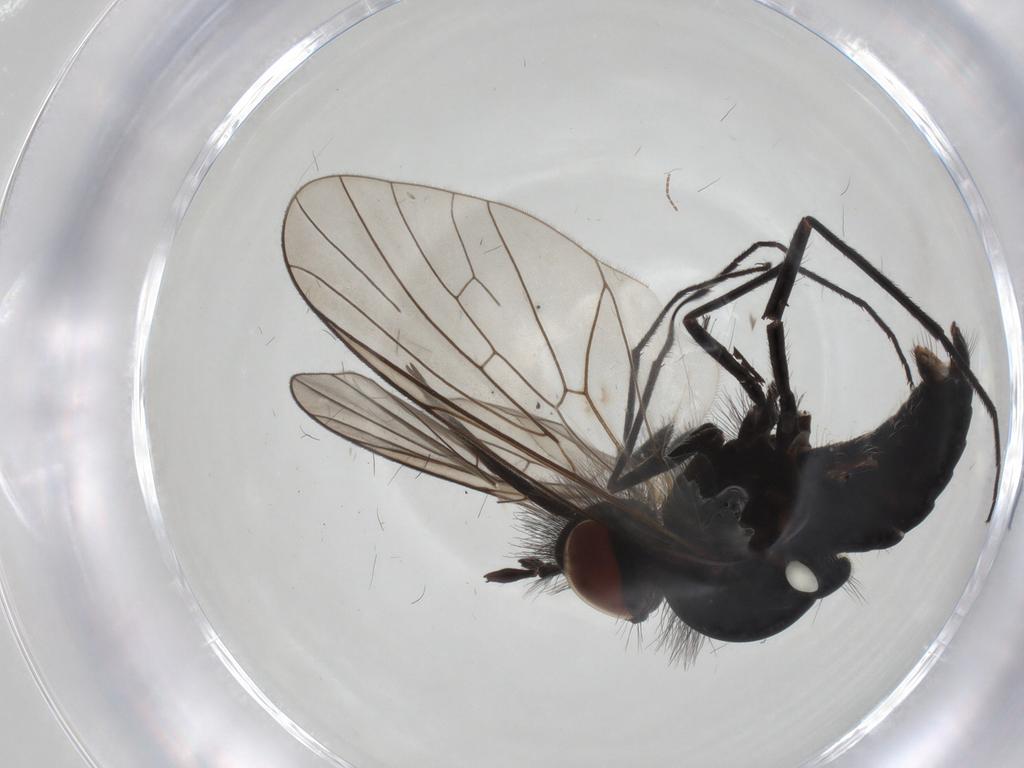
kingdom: Animalia
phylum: Arthropoda
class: Insecta
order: Diptera
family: Bombyliidae
